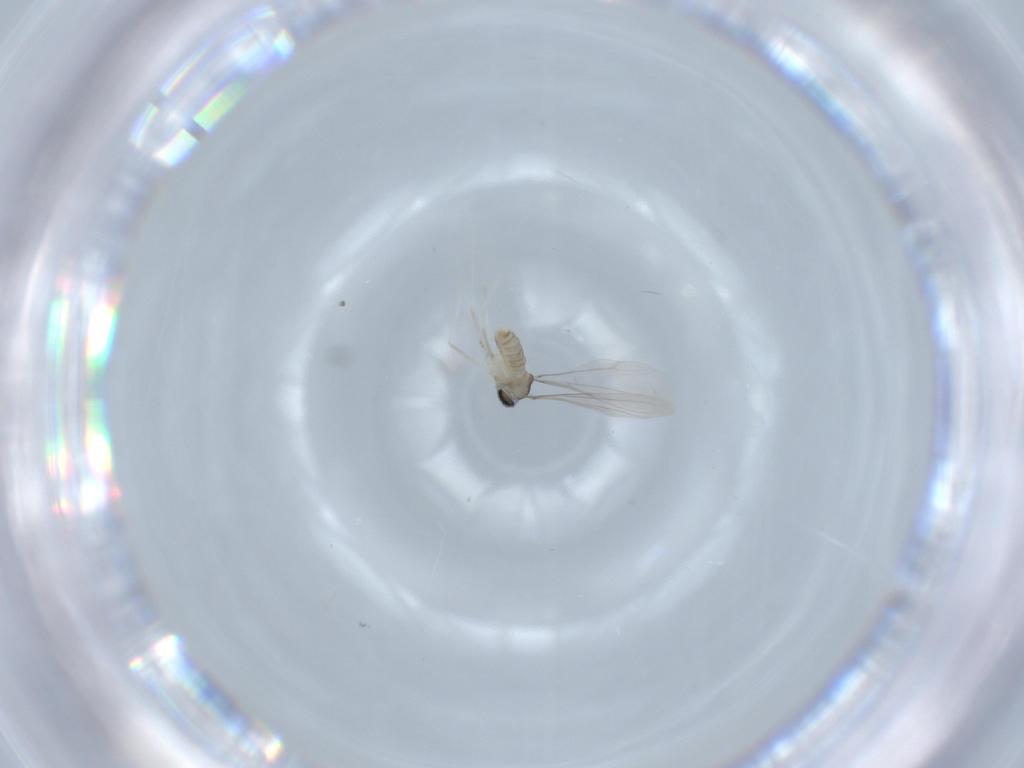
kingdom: Animalia
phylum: Arthropoda
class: Insecta
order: Diptera
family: Cecidomyiidae
